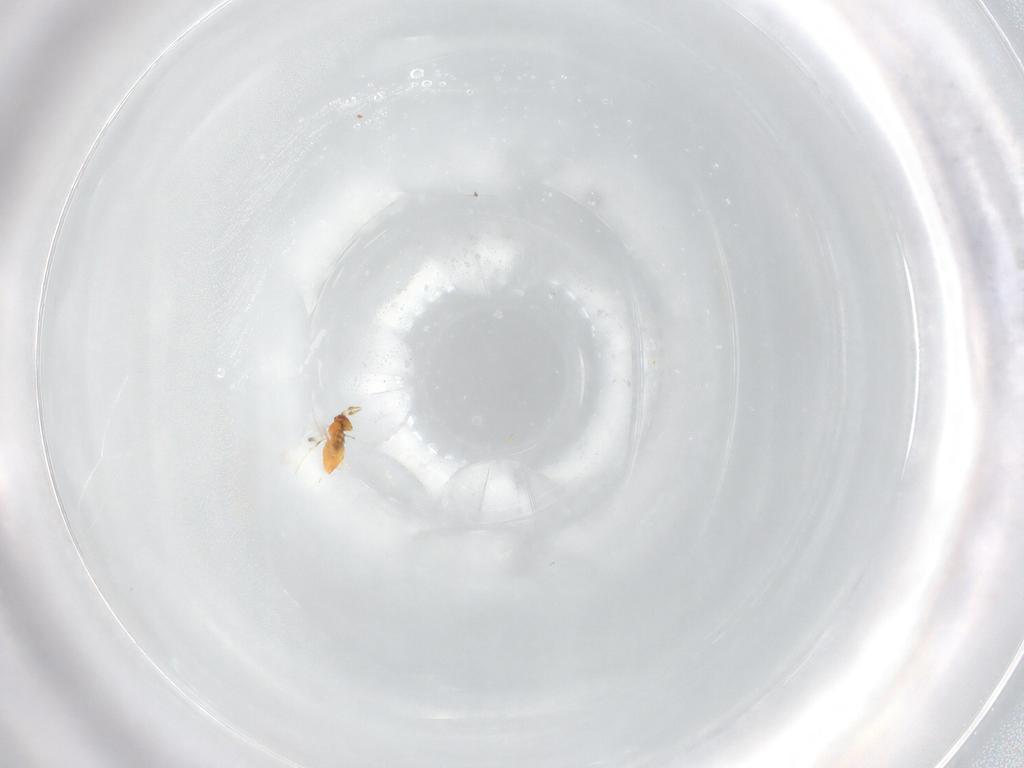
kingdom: Animalia
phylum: Arthropoda
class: Insecta
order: Hymenoptera
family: Trichogrammatidae
